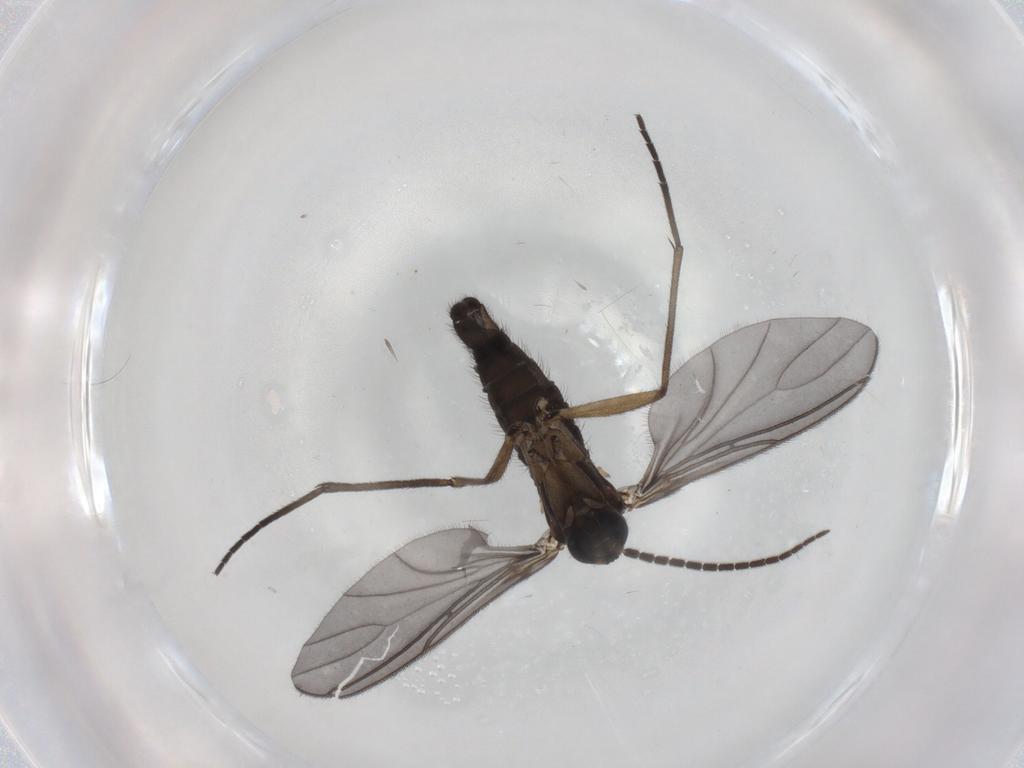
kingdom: Animalia
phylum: Arthropoda
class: Insecta
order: Diptera
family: Sciaridae
